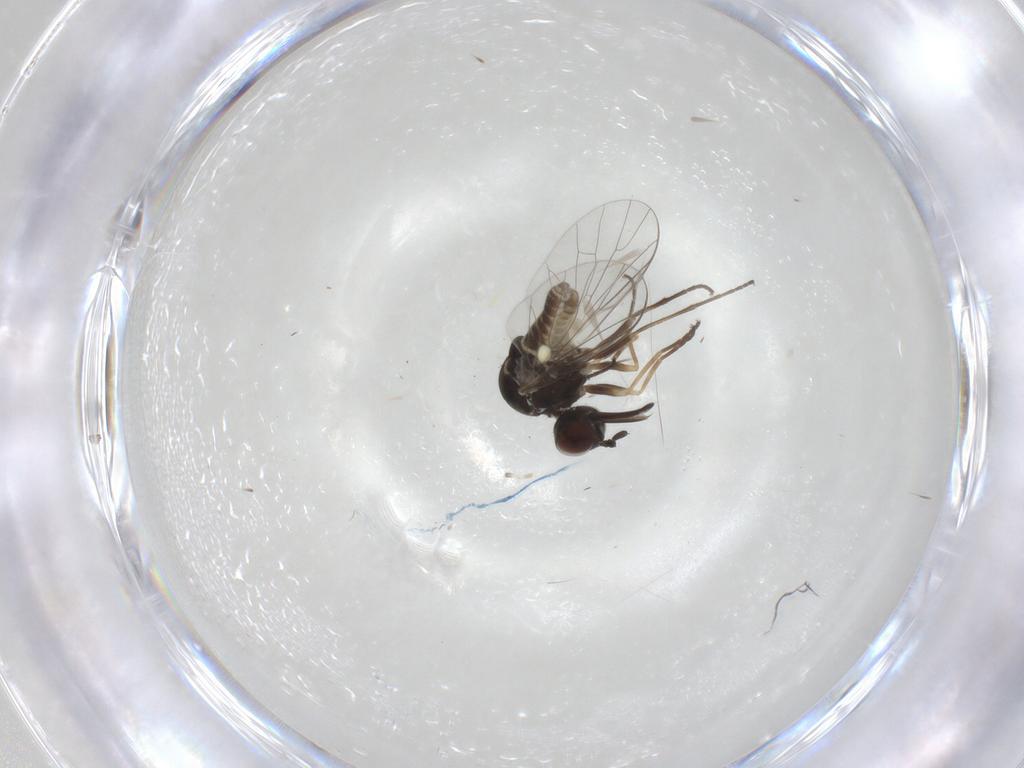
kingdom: Animalia
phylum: Arthropoda
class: Insecta
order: Diptera
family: Bombyliidae
